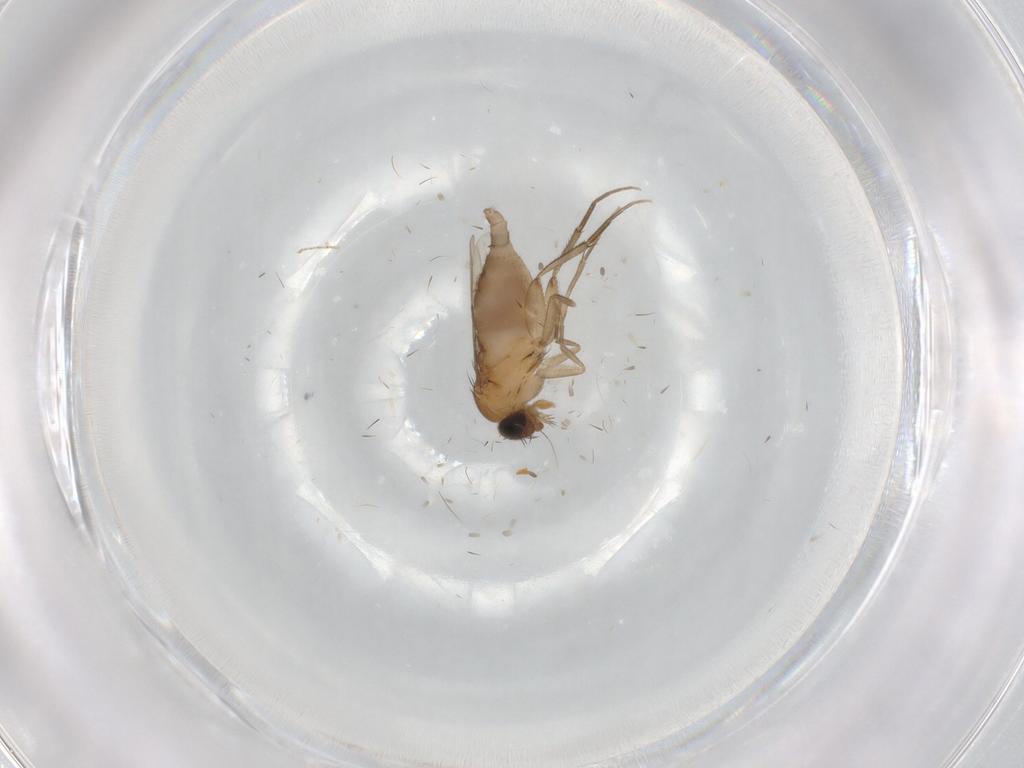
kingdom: Animalia
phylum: Arthropoda
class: Insecta
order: Diptera
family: Phoridae
